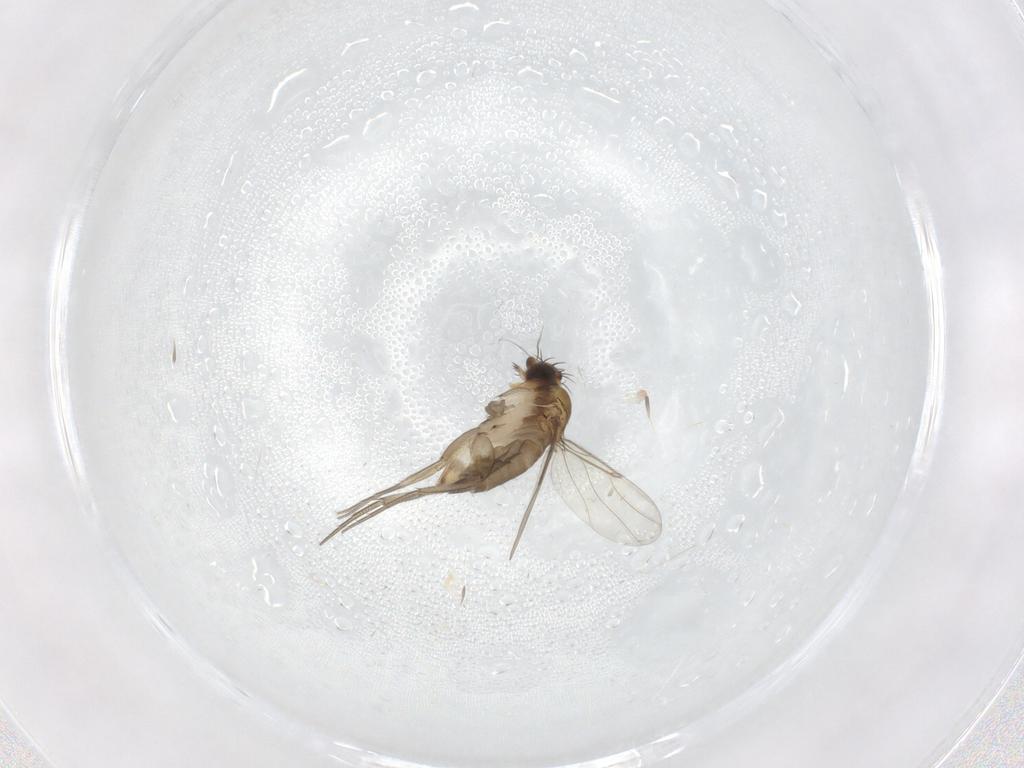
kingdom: Animalia
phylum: Arthropoda
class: Insecta
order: Diptera
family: Phoridae
